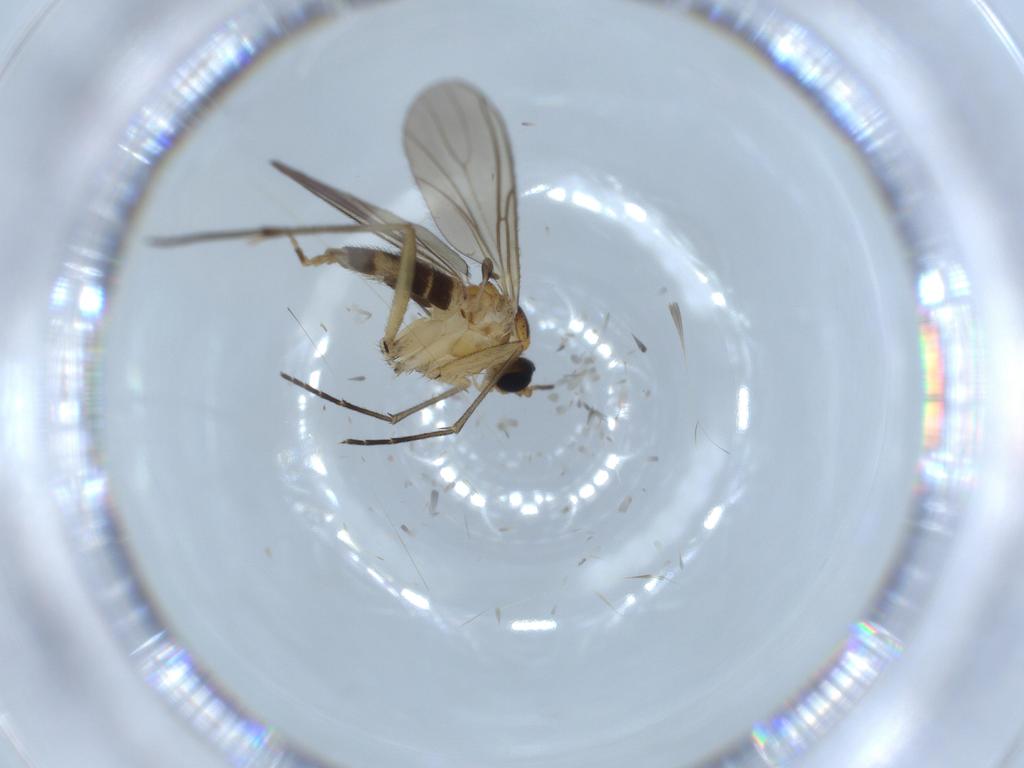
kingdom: Animalia
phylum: Arthropoda
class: Insecta
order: Diptera
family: Sciaridae
